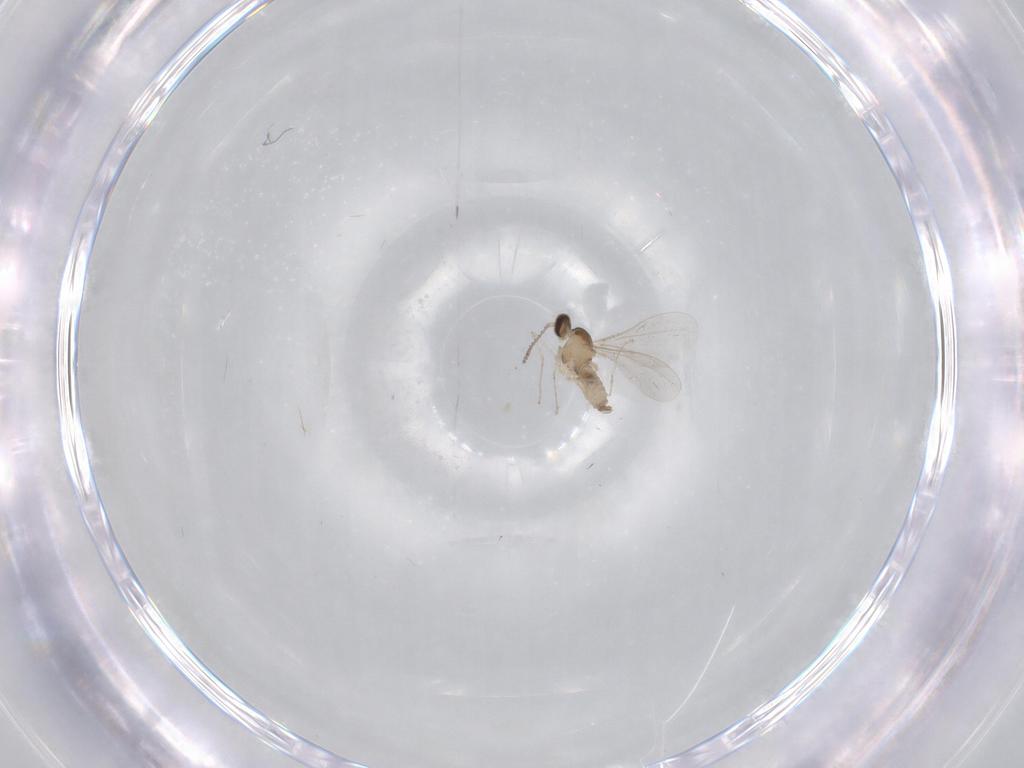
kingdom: Animalia
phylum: Arthropoda
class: Insecta
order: Diptera
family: Cecidomyiidae
